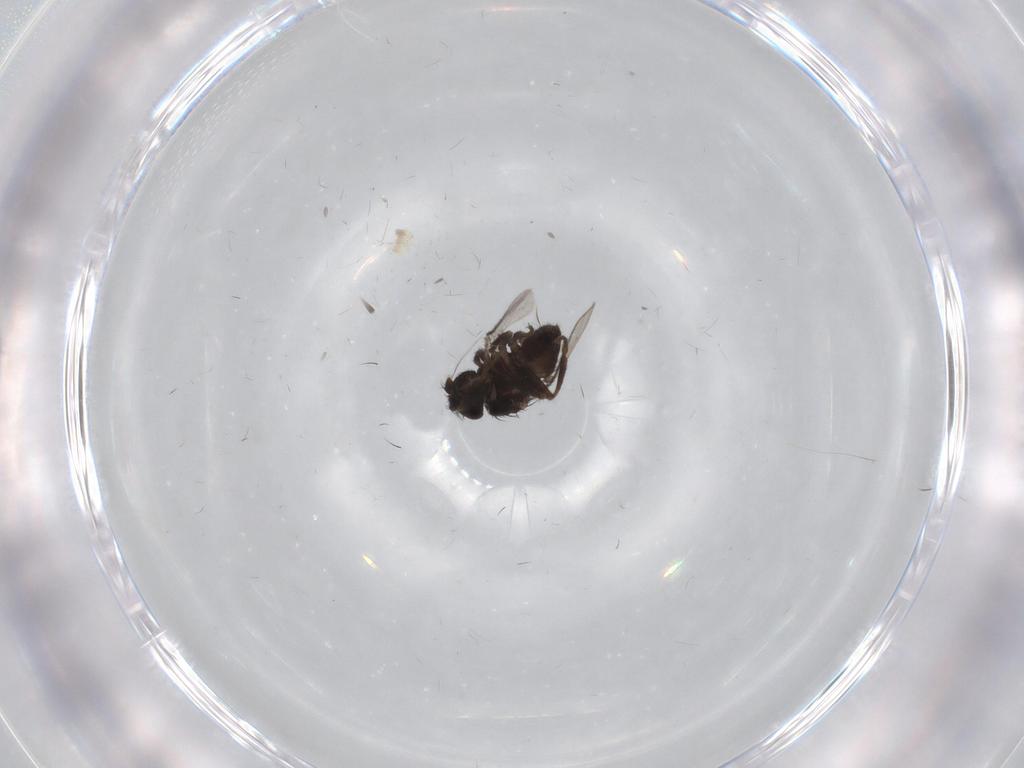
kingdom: Animalia
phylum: Arthropoda
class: Insecta
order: Diptera
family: Sphaeroceridae
